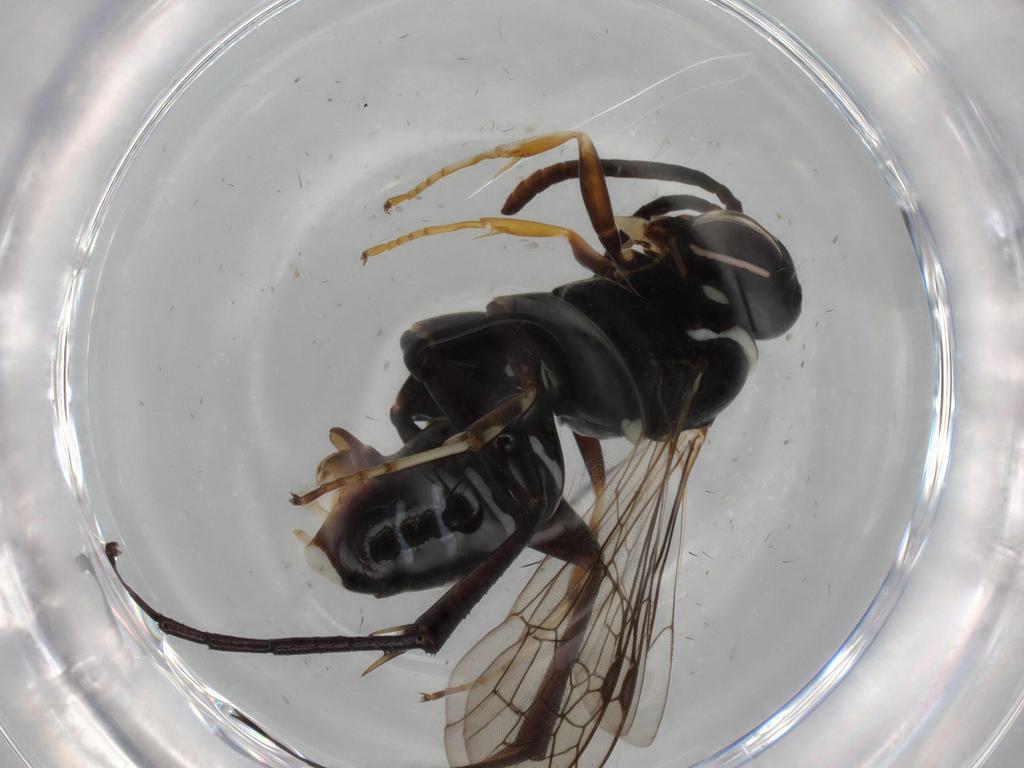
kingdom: Animalia
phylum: Arthropoda
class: Insecta
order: Hymenoptera
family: Pompilidae
